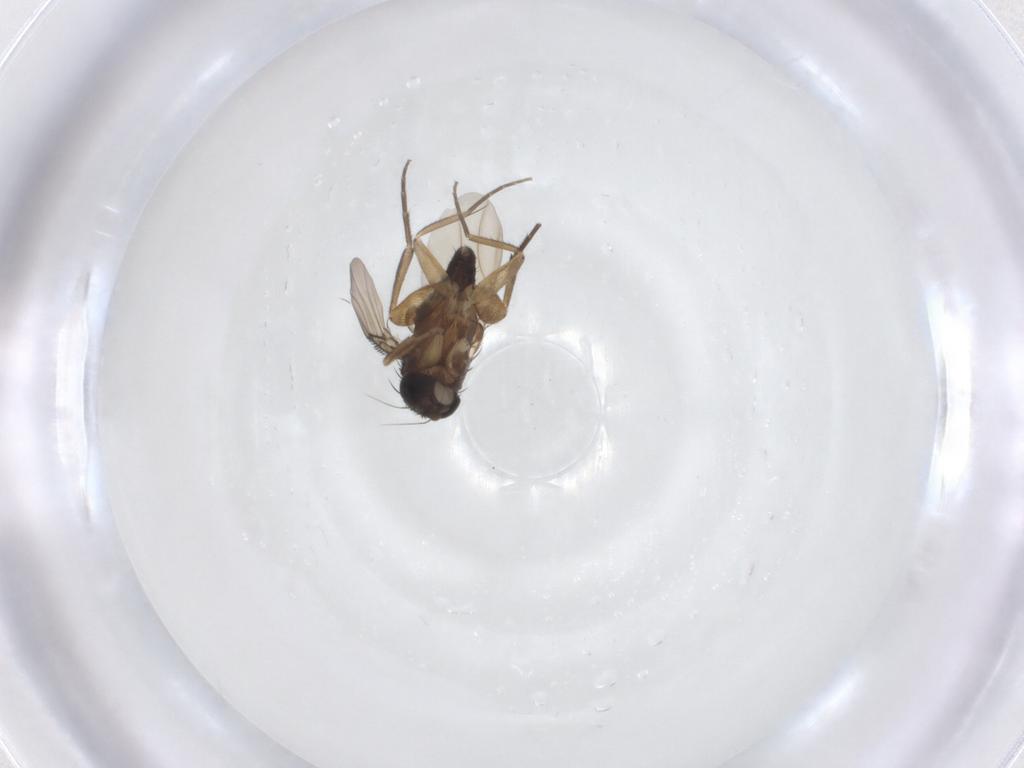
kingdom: Animalia
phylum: Arthropoda
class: Insecta
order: Diptera
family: Phoridae
